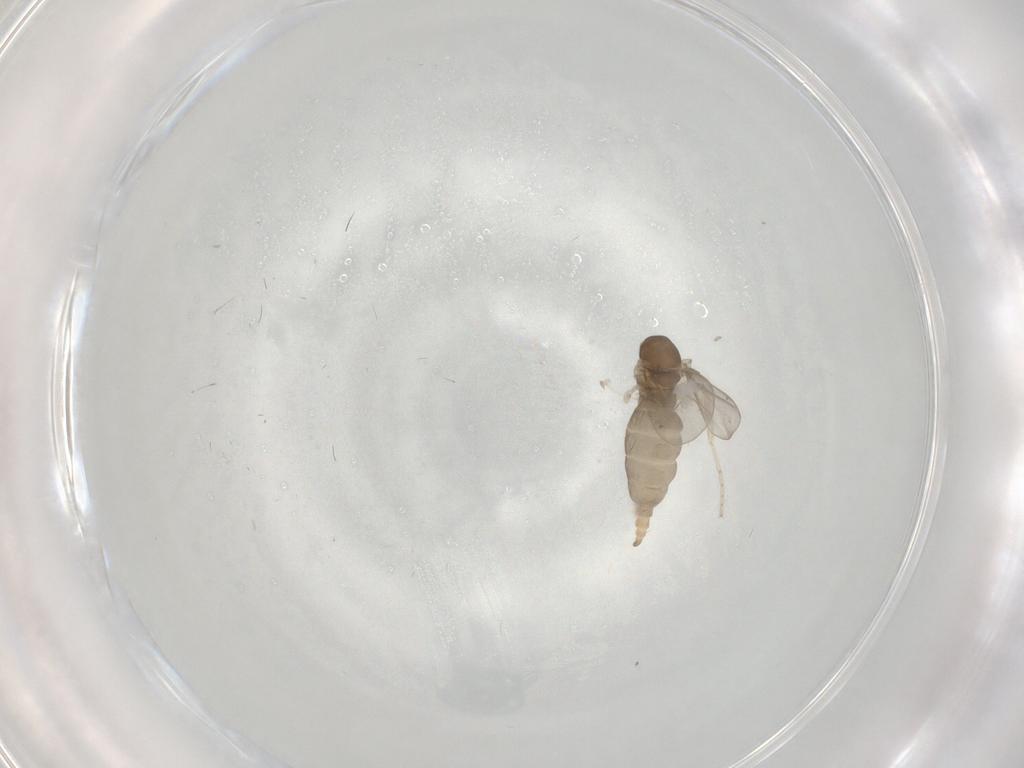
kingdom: Animalia
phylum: Arthropoda
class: Insecta
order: Diptera
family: Cecidomyiidae
